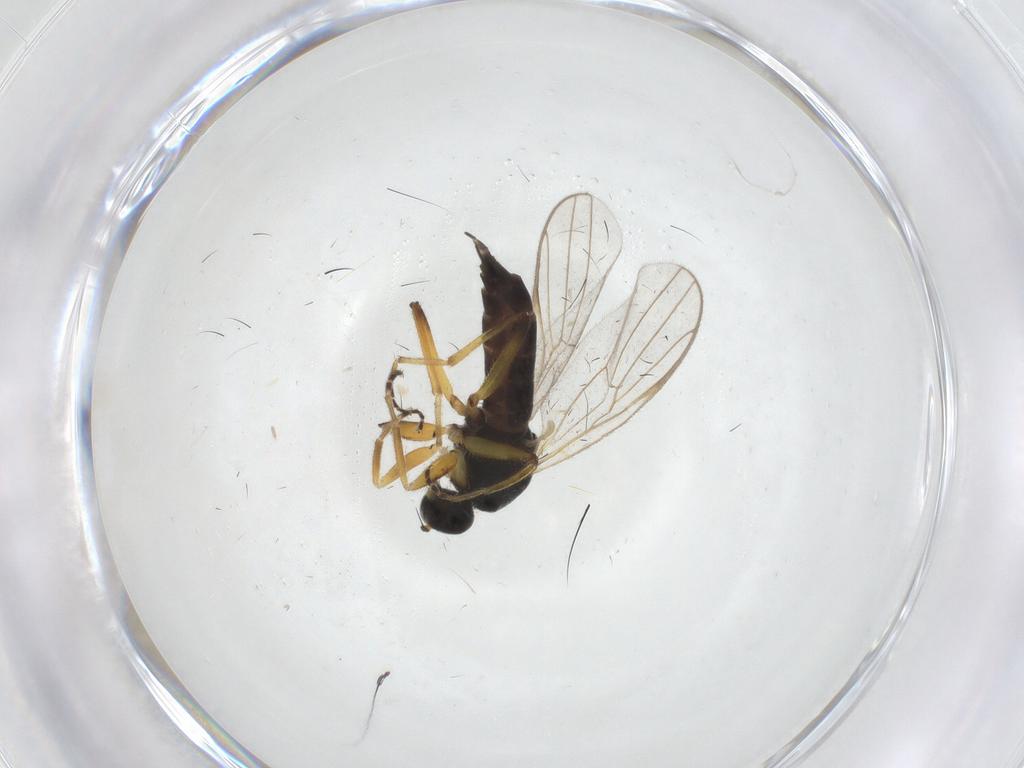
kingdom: Animalia
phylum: Arthropoda
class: Insecta
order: Diptera
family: Hybotidae
